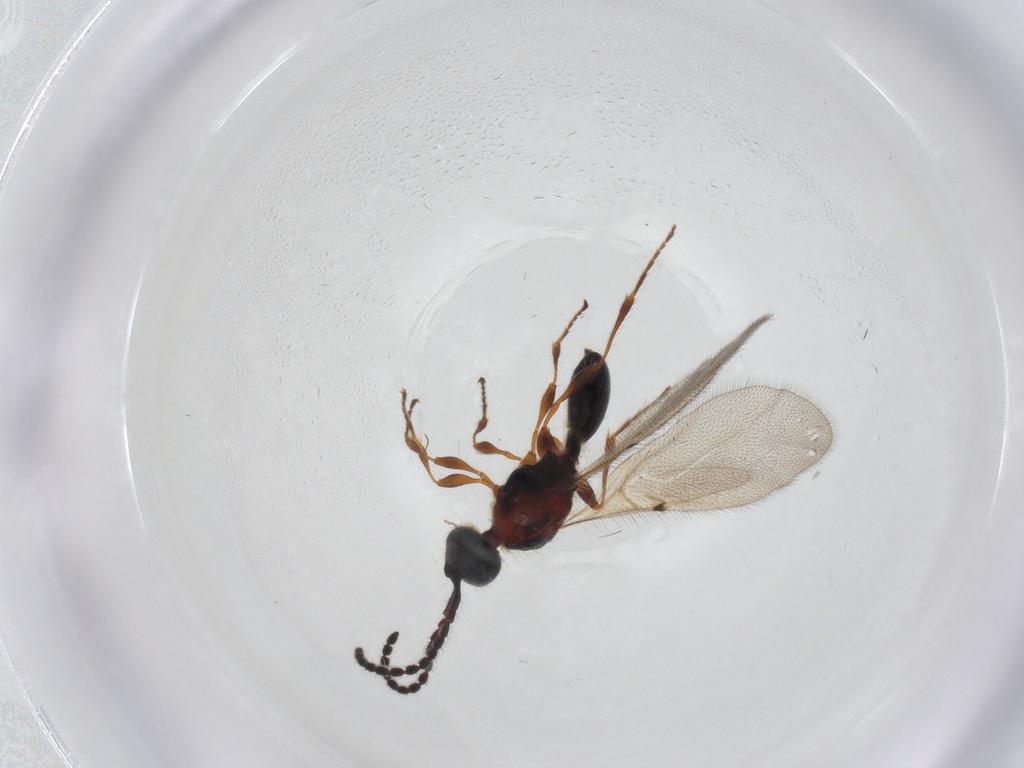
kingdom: Animalia
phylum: Arthropoda
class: Insecta
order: Hymenoptera
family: Diapriidae
